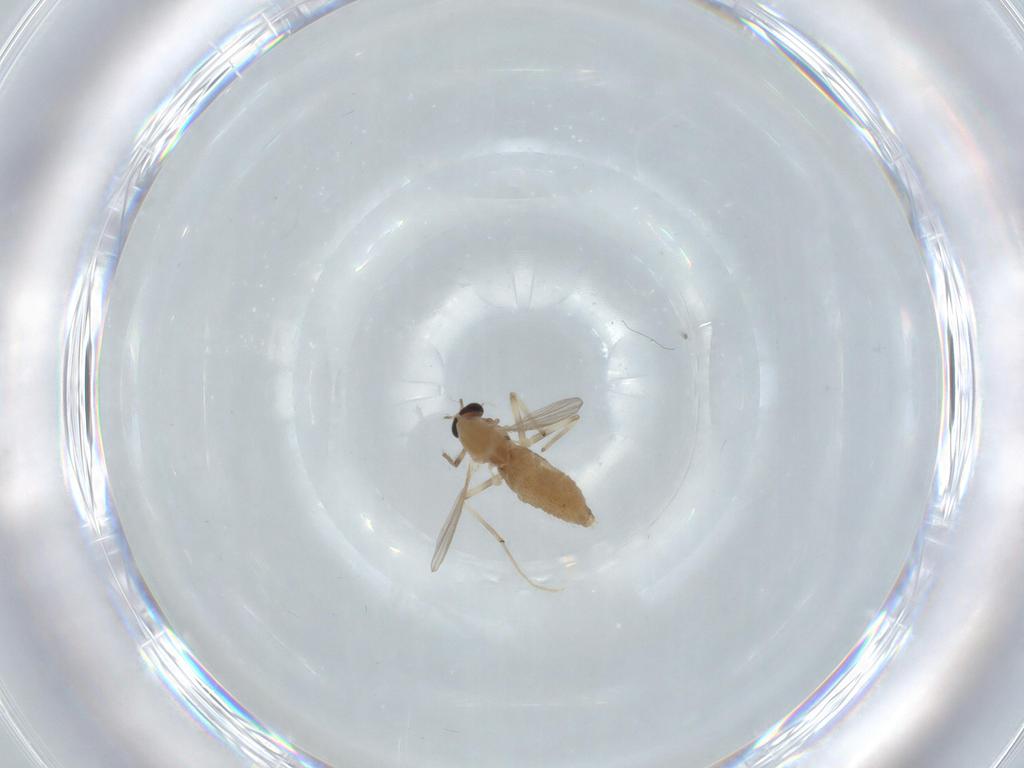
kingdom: Animalia
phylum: Arthropoda
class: Insecta
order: Diptera
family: Chironomidae
